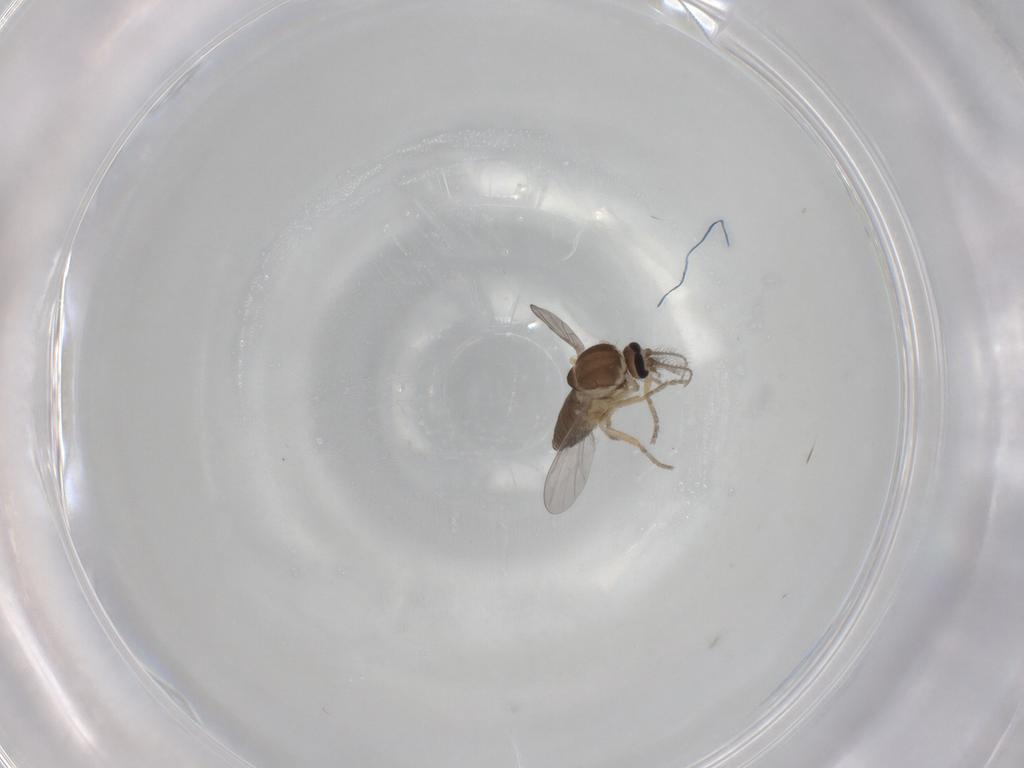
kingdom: Animalia
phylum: Arthropoda
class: Insecta
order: Diptera
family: Ceratopogonidae
